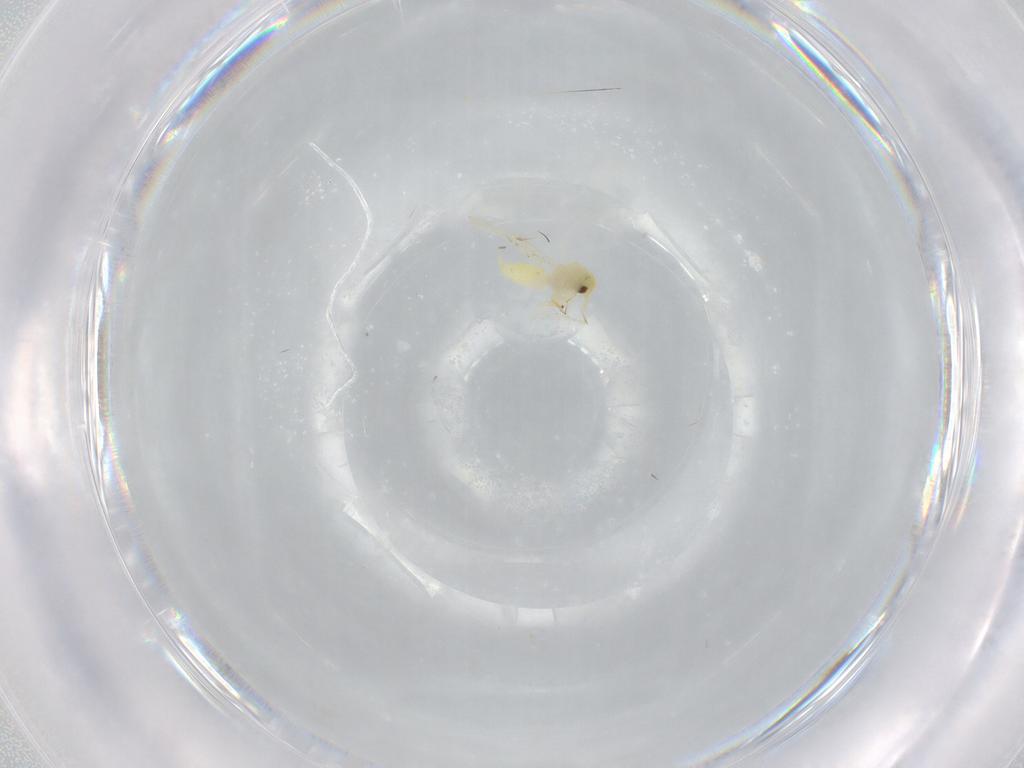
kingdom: Animalia
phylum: Arthropoda
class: Insecta
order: Hemiptera
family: Aleyrodidae
